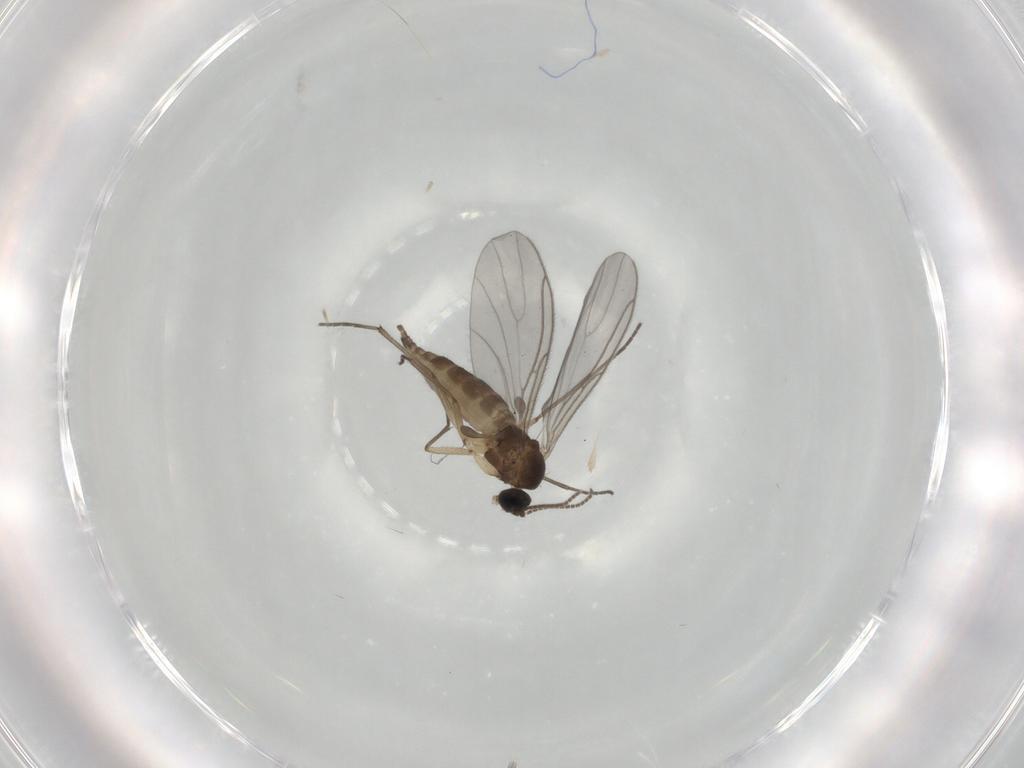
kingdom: Animalia
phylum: Arthropoda
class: Insecta
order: Diptera
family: Sciaridae
